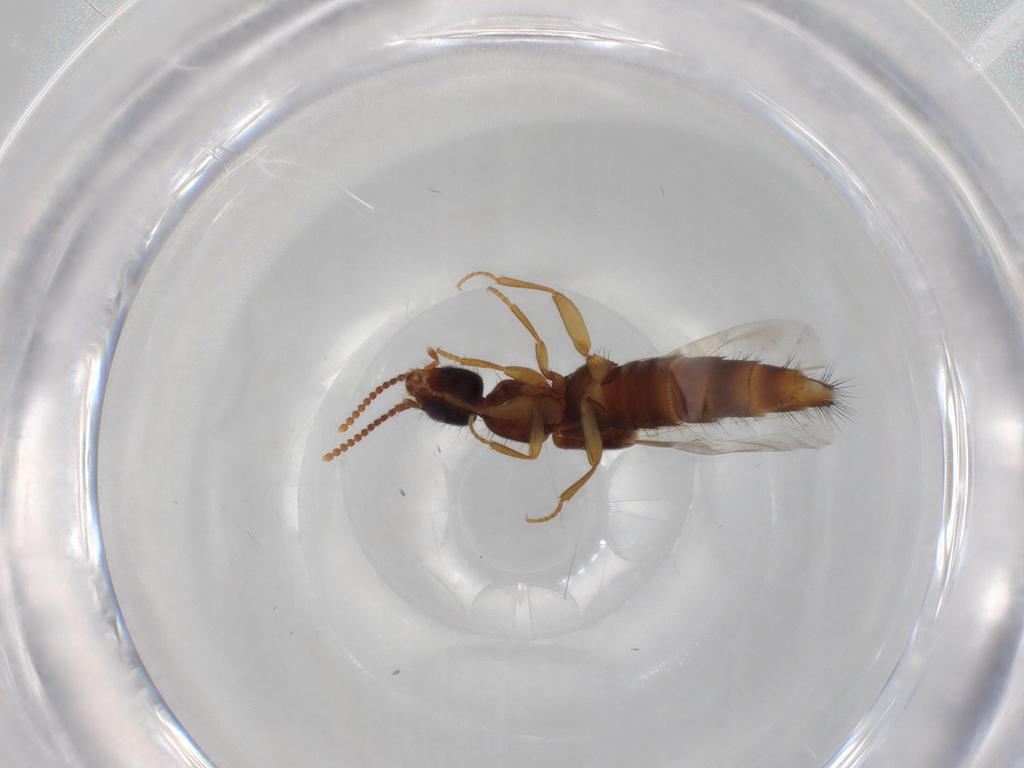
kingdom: Animalia
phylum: Arthropoda
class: Insecta
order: Coleoptera
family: Staphylinidae
